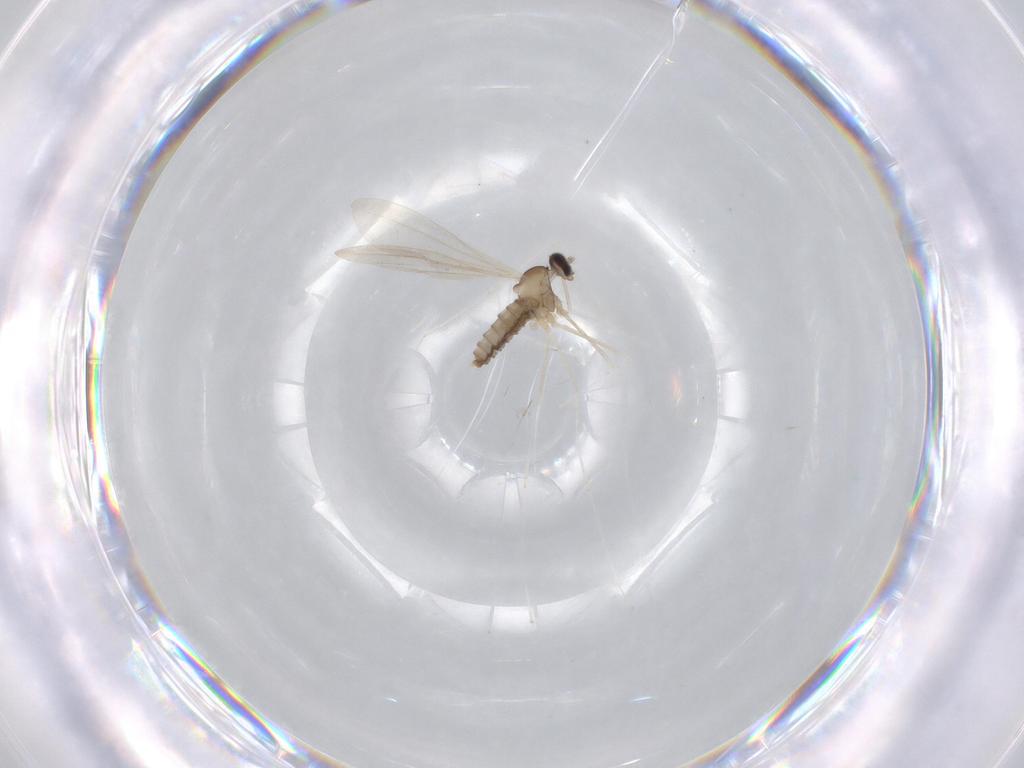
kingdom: Animalia
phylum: Arthropoda
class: Insecta
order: Diptera
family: Cecidomyiidae
